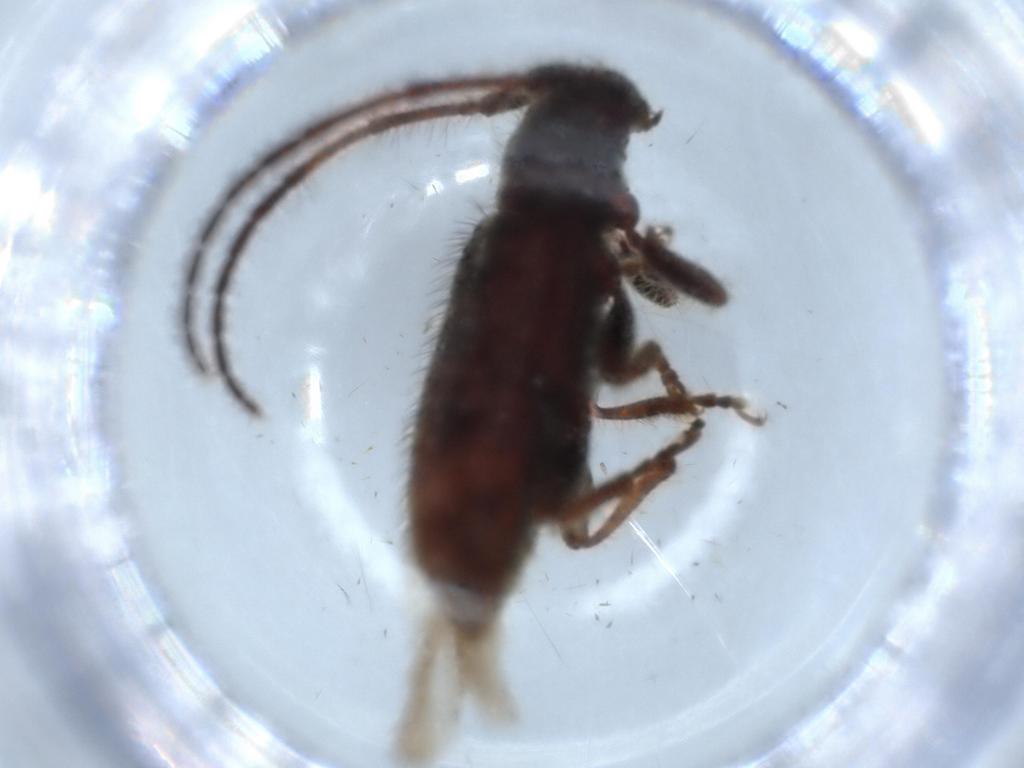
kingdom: Animalia
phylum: Arthropoda
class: Insecta
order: Coleoptera
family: Cerambycidae
